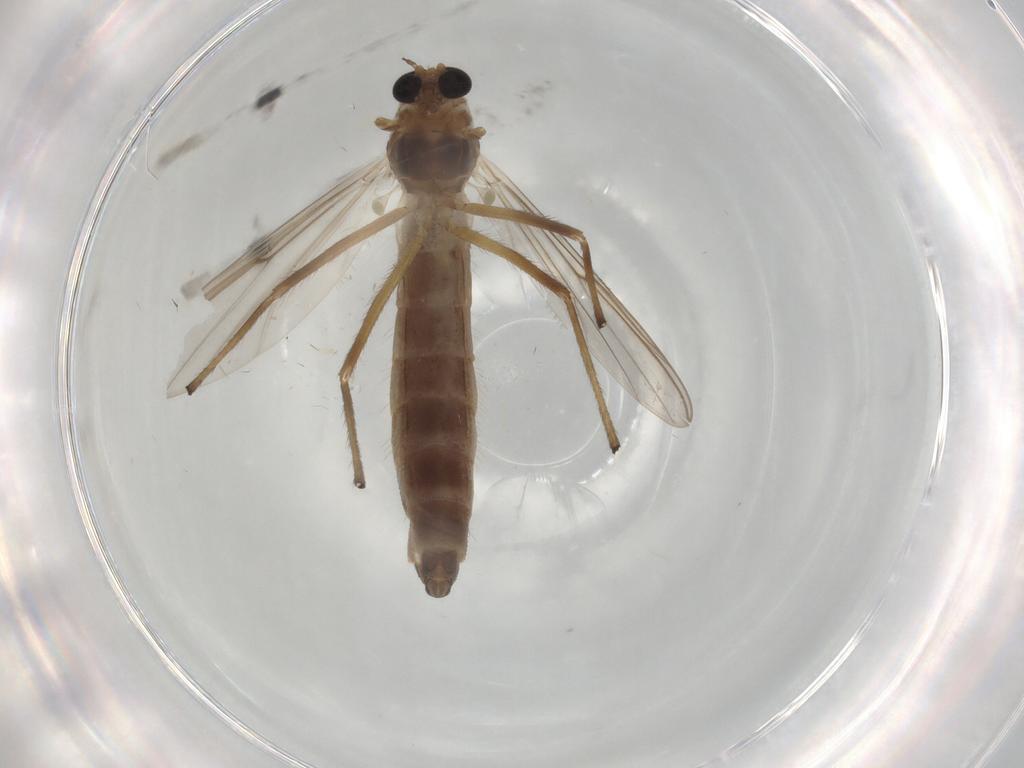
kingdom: Animalia
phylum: Arthropoda
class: Insecta
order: Diptera
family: Chironomidae
